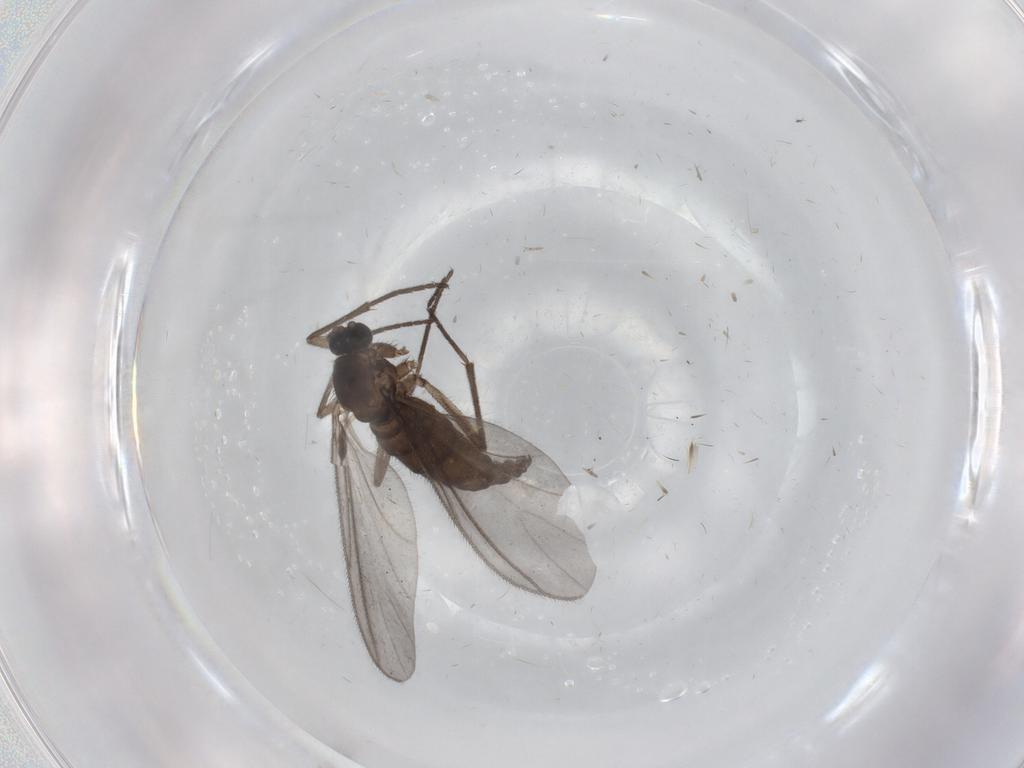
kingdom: Animalia
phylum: Arthropoda
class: Insecta
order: Diptera
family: Sciaridae
